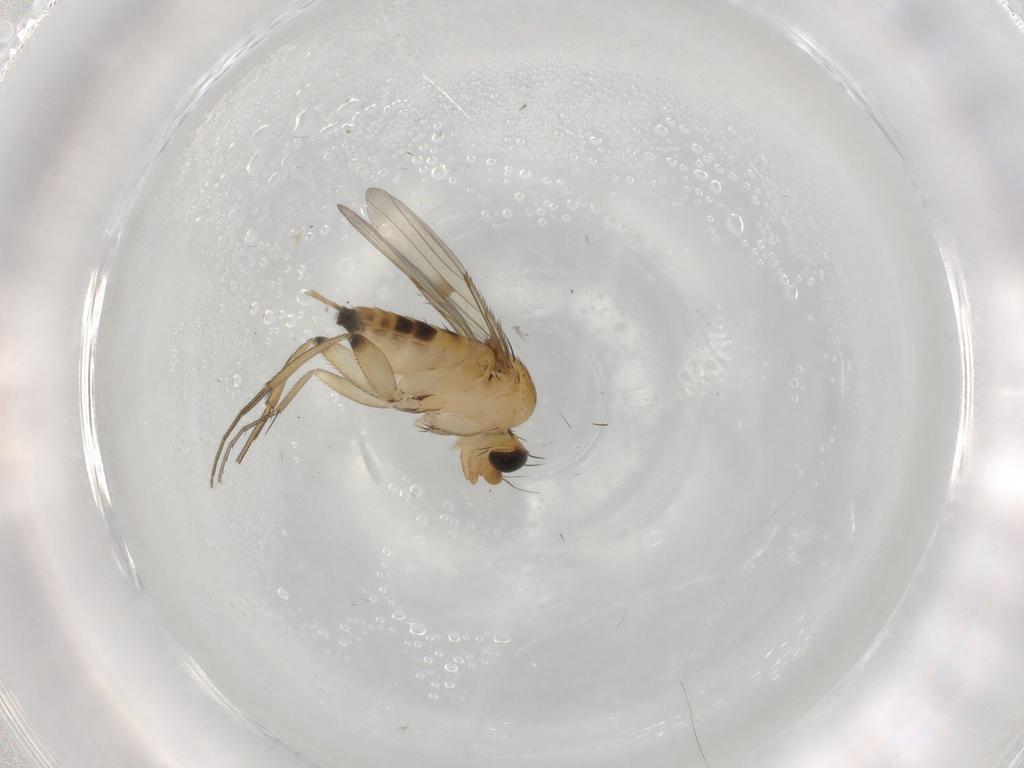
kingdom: Animalia
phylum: Arthropoda
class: Insecta
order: Diptera
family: Phoridae
